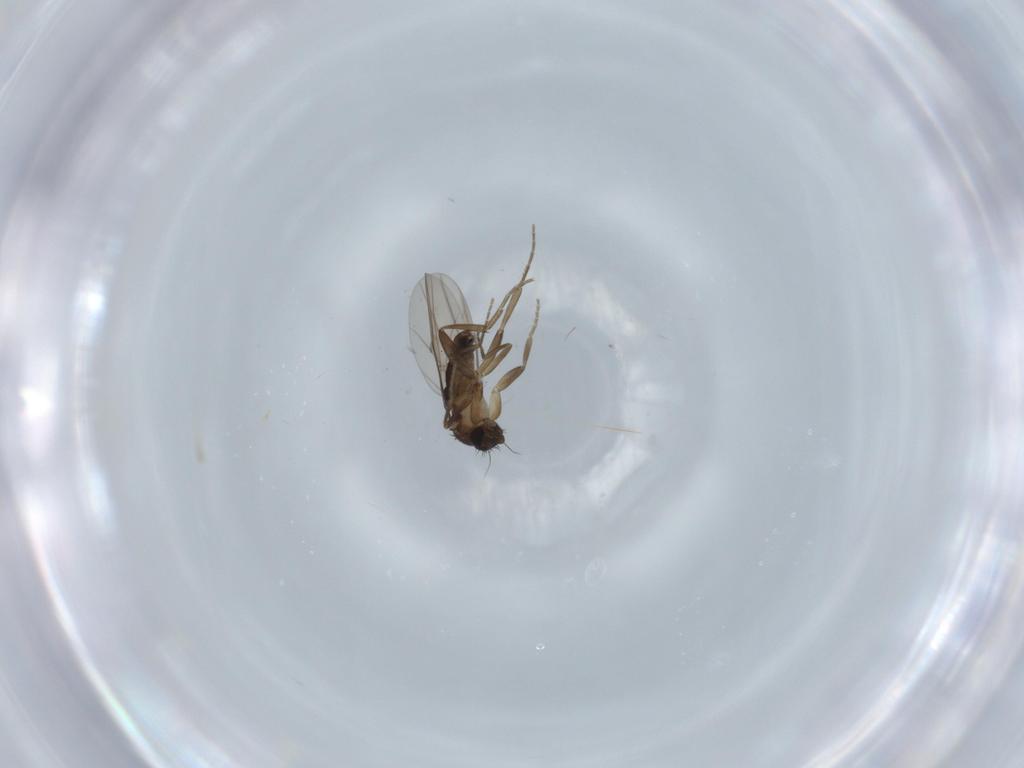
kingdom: Animalia
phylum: Arthropoda
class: Insecta
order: Diptera
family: Phoridae
